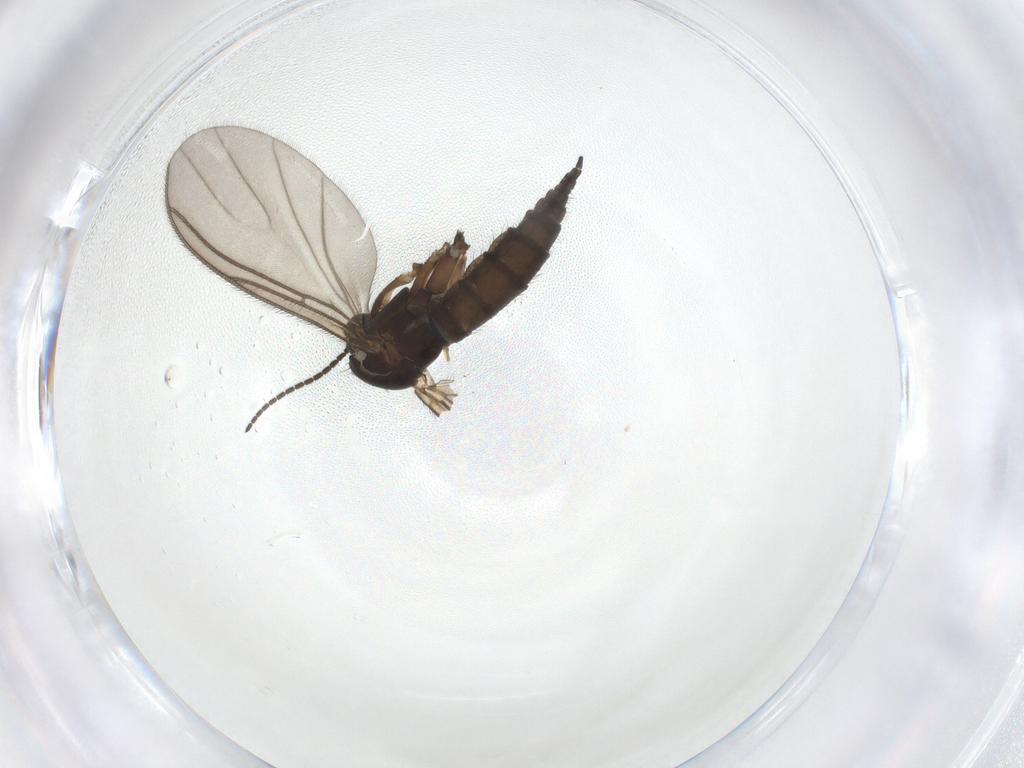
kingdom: Animalia
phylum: Arthropoda
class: Insecta
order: Diptera
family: Sciaridae
